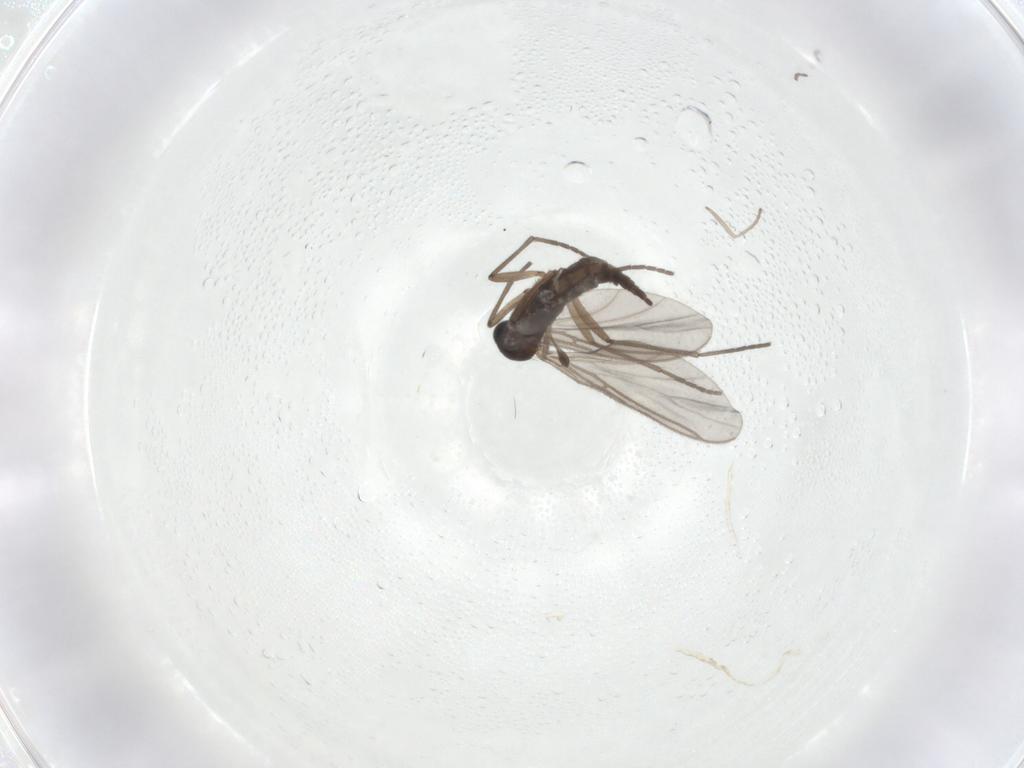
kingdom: Animalia
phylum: Arthropoda
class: Insecta
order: Diptera
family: Sciaridae
